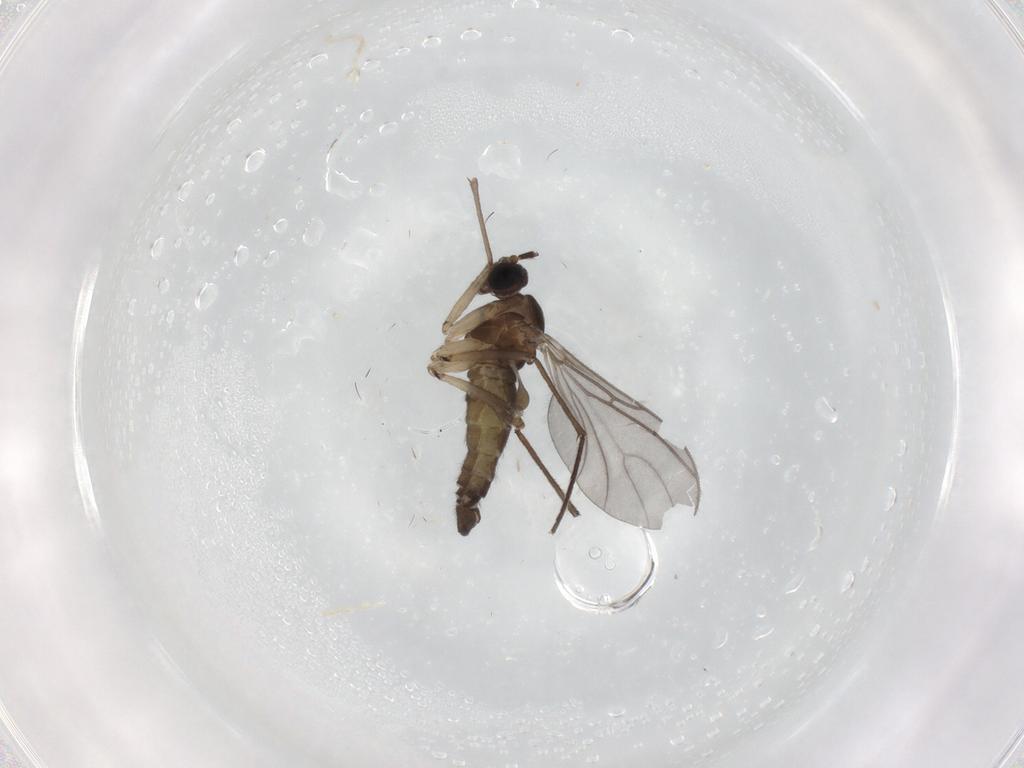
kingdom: Animalia
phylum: Arthropoda
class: Insecta
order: Diptera
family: Sciaridae
